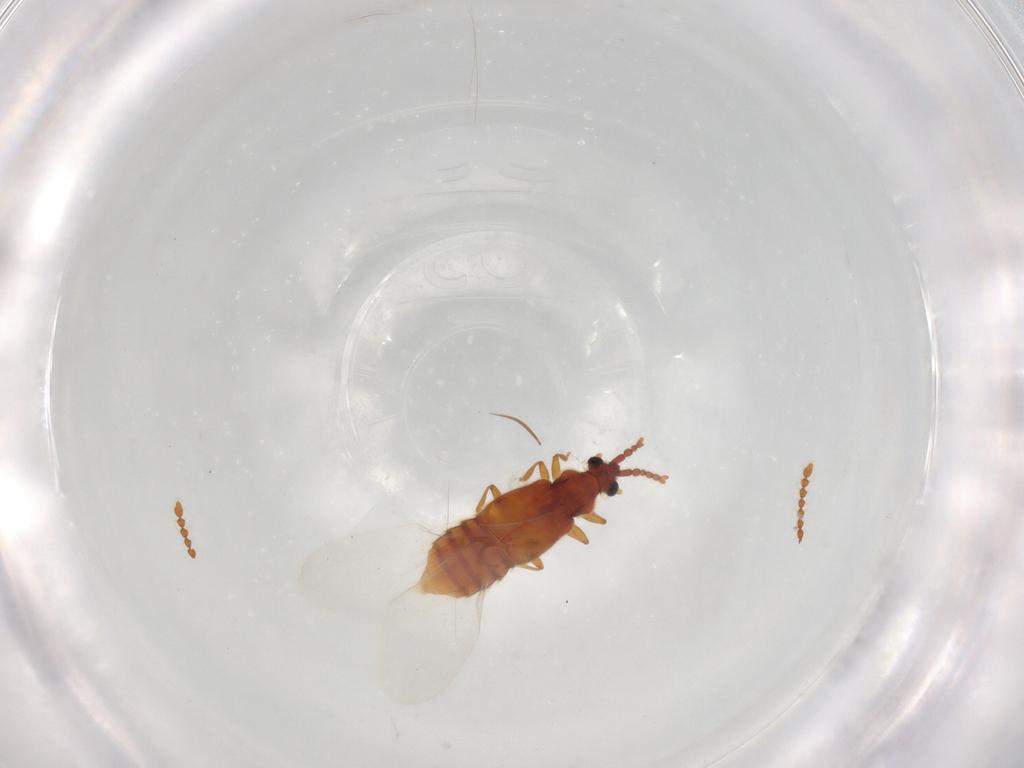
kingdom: Animalia
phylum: Arthropoda
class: Insecta
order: Coleoptera
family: Staphylinidae
